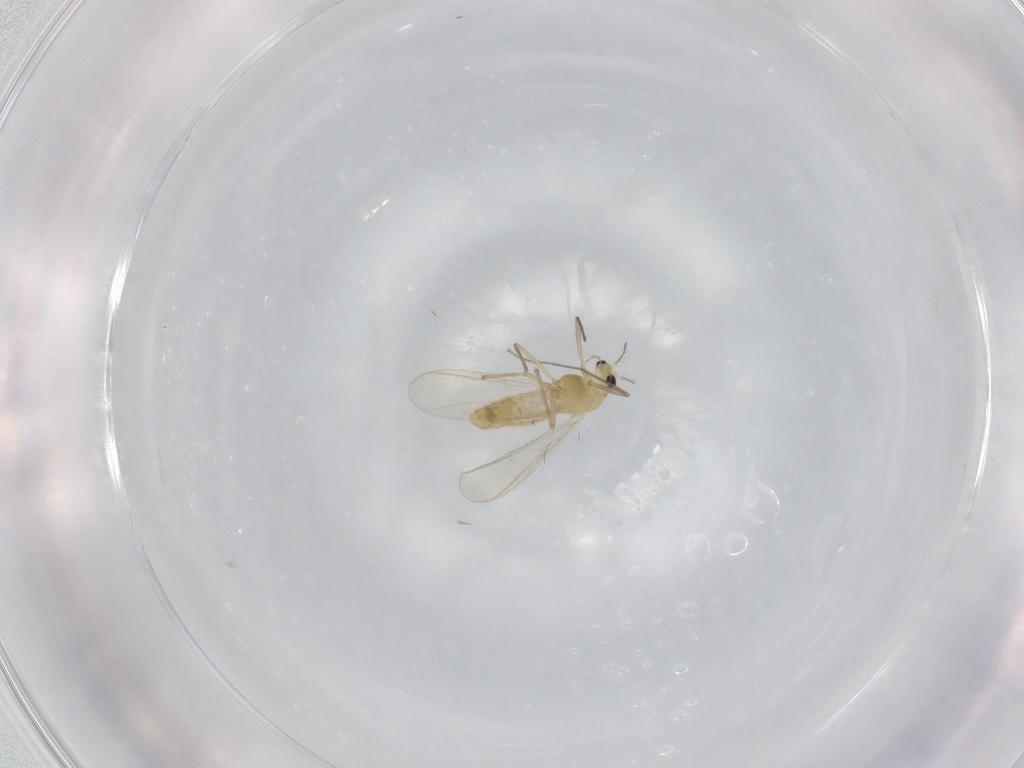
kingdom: Animalia
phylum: Arthropoda
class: Insecta
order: Diptera
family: Chironomidae
